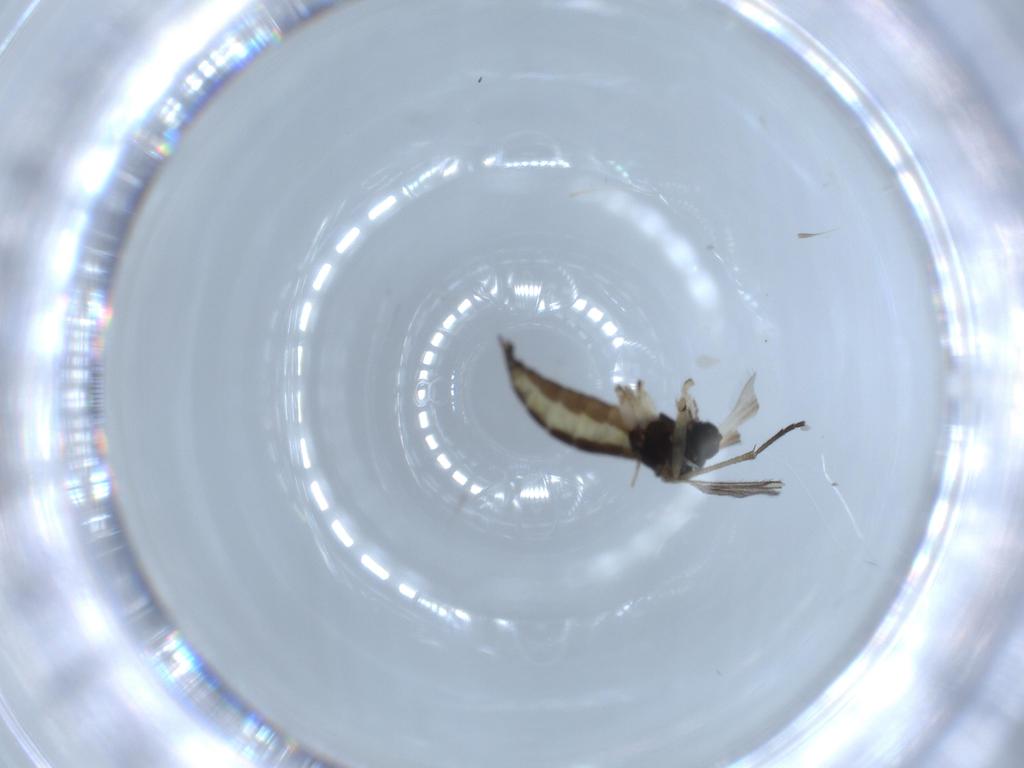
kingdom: Animalia
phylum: Arthropoda
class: Insecta
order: Diptera
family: Sciaridae
